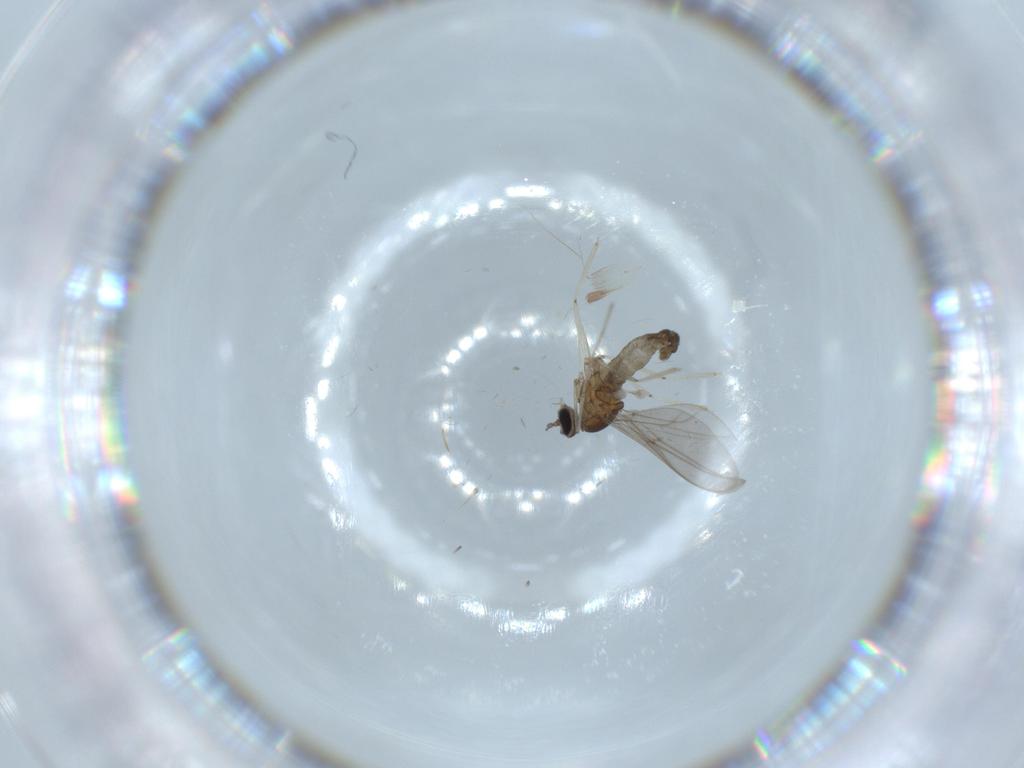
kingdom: Animalia
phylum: Arthropoda
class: Insecta
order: Diptera
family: Cecidomyiidae
